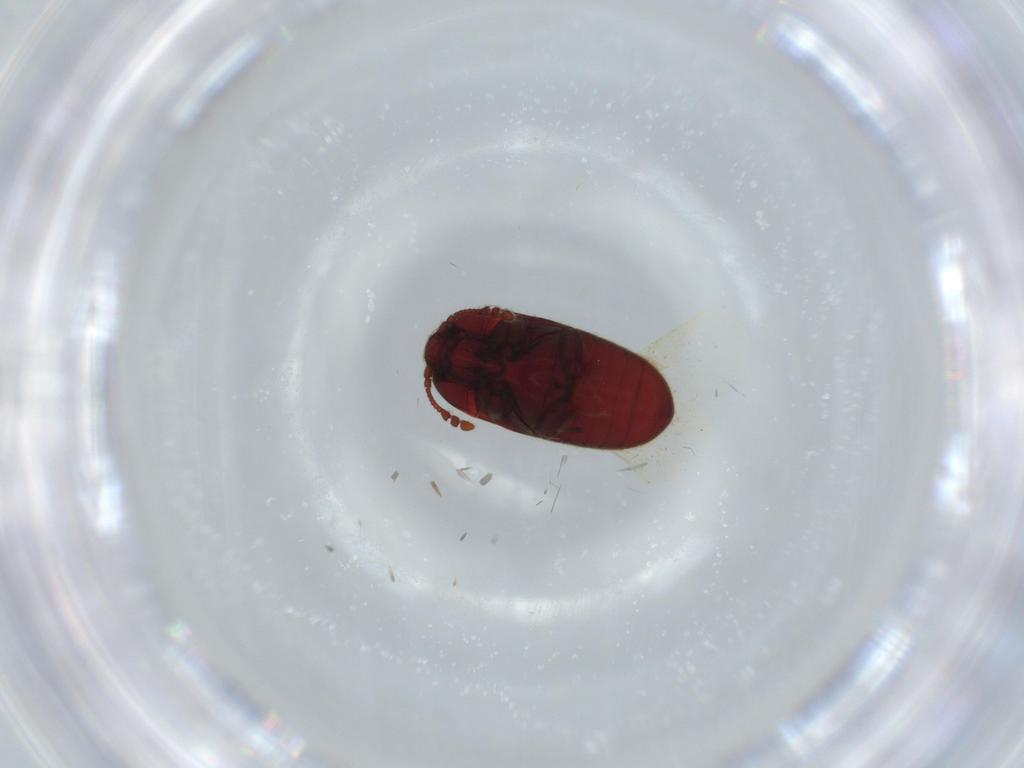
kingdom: Animalia
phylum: Arthropoda
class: Insecta
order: Coleoptera
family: Throscidae
